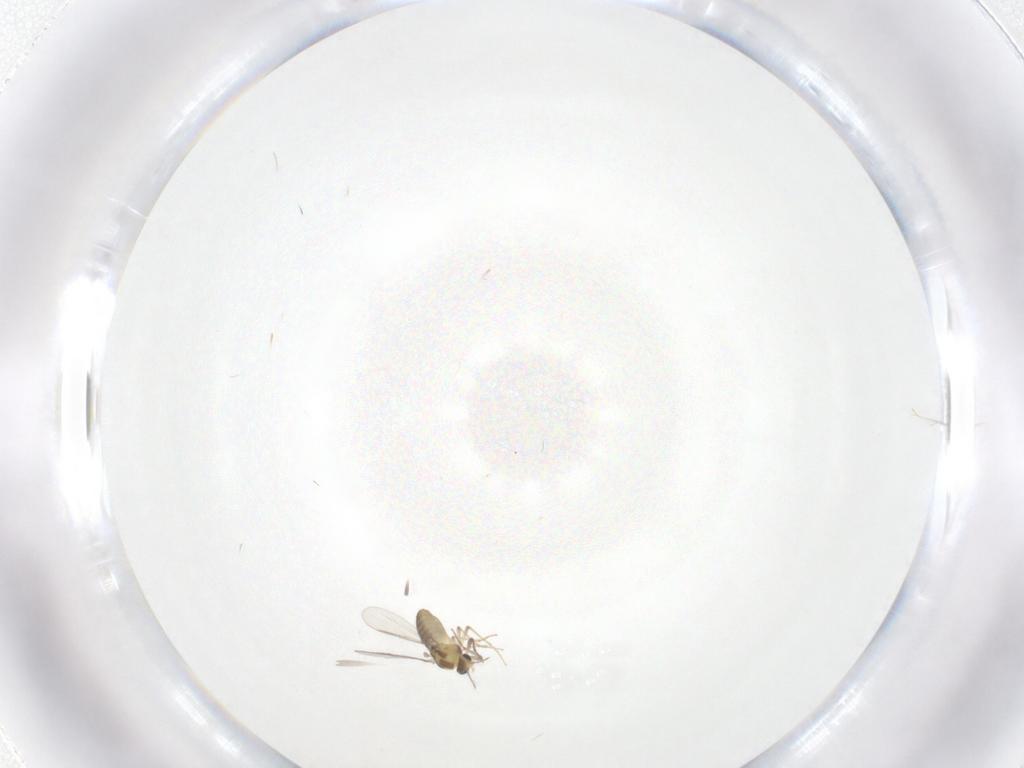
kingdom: Animalia
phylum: Arthropoda
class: Insecta
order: Diptera
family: Chironomidae
